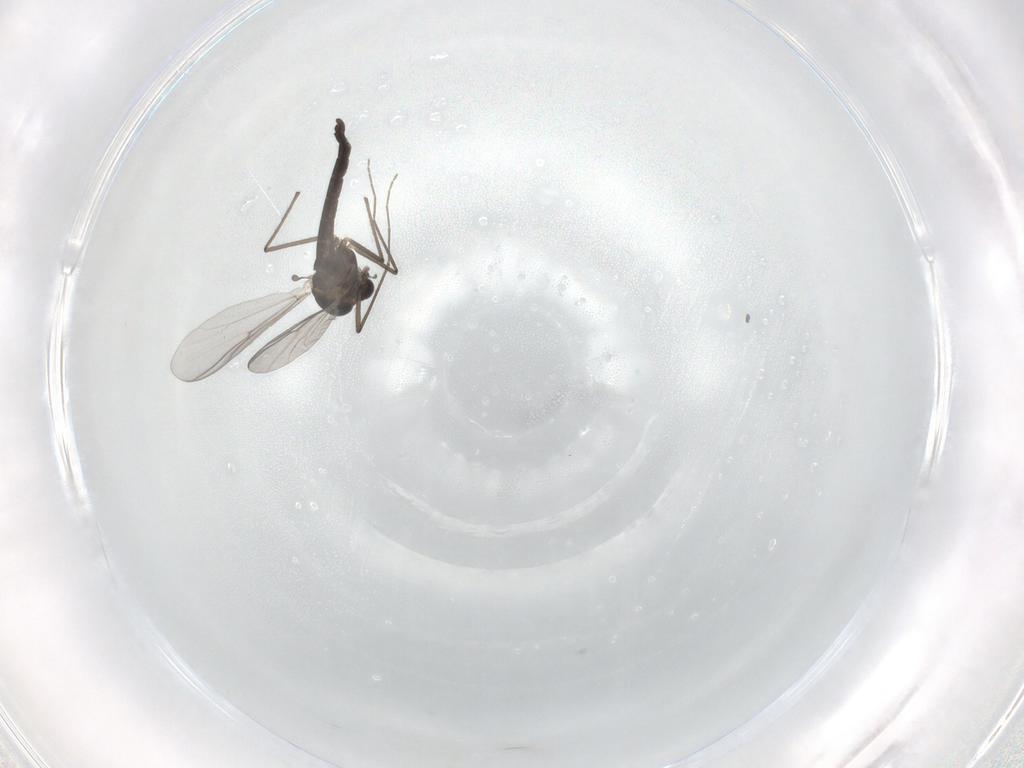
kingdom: Animalia
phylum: Arthropoda
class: Insecta
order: Diptera
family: Chironomidae
